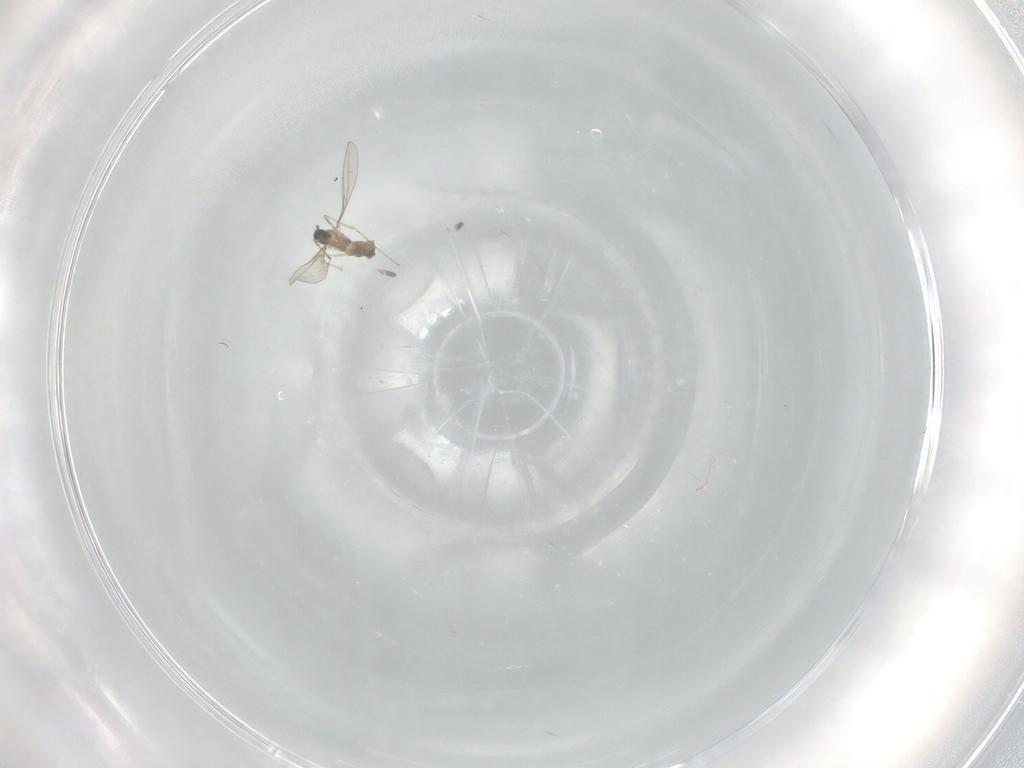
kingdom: Animalia
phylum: Arthropoda
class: Insecta
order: Diptera
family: Cecidomyiidae
